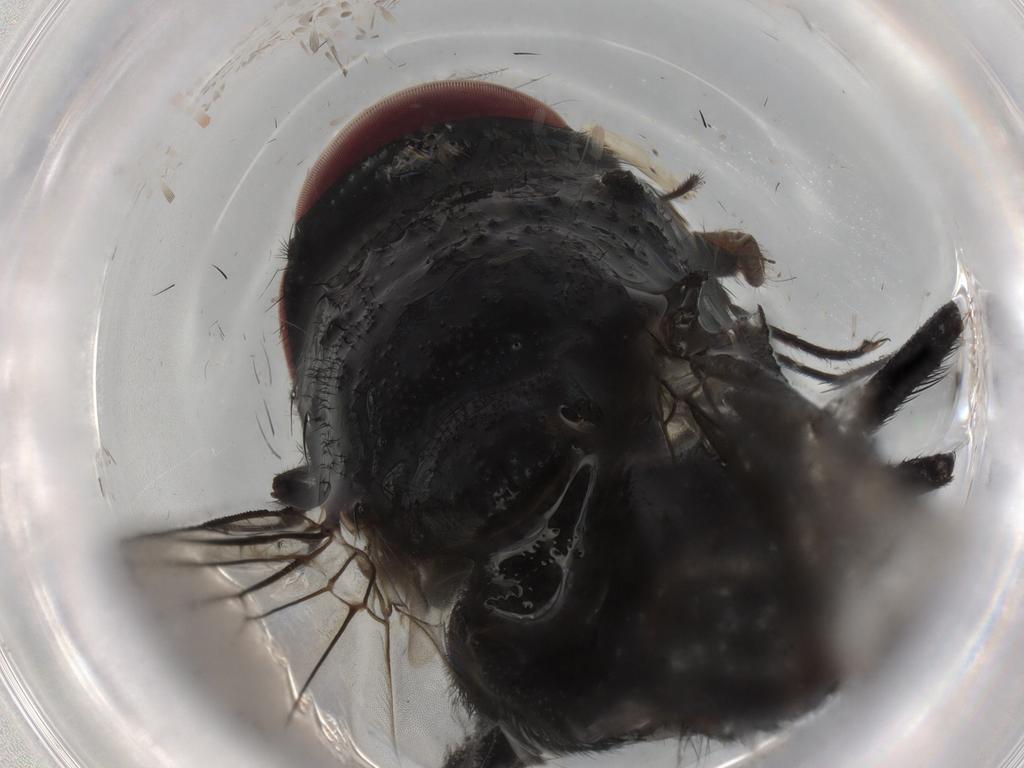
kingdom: Animalia
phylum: Arthropoda
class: Insecta
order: Diptera
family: Muscidae
